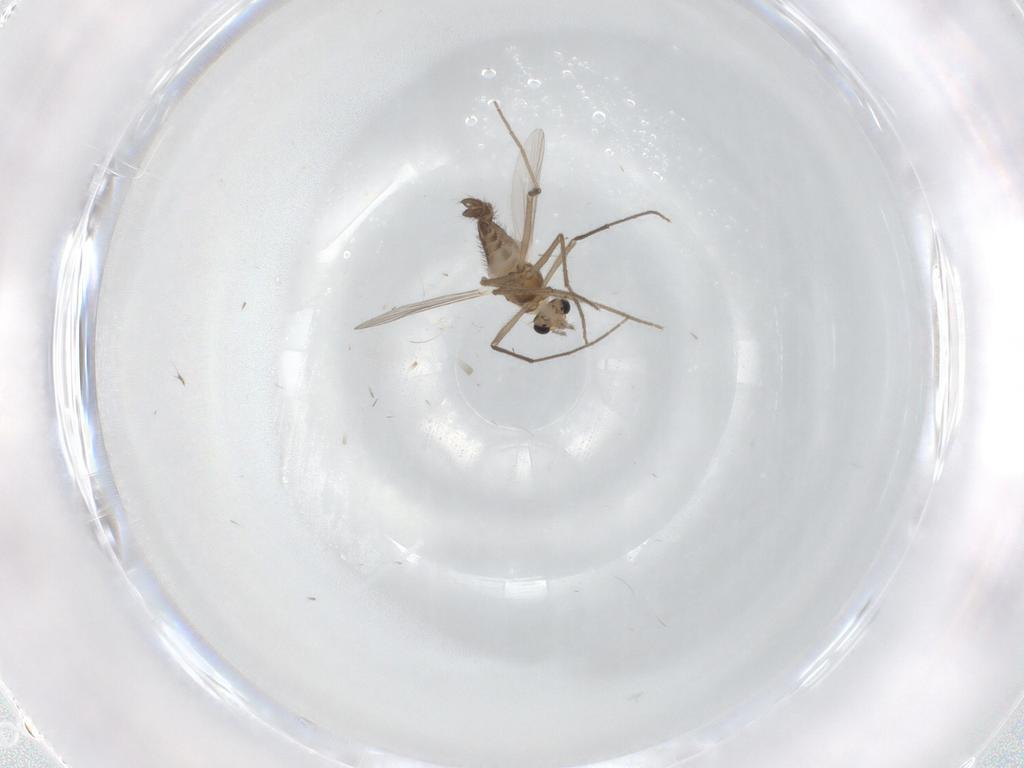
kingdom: Animalia
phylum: Arthropoda
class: Insecta
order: Diptera
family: Chironomidae
